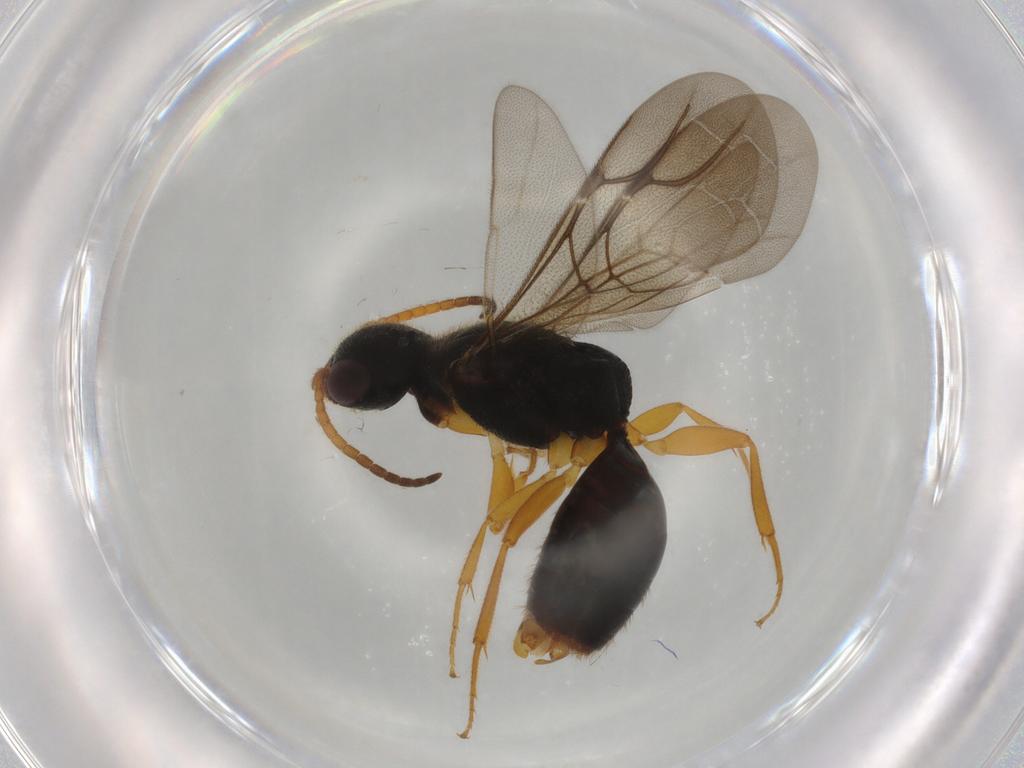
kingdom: Animalia
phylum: Arthropoda
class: Insecta
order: Hymenoptera
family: Bethylidae
